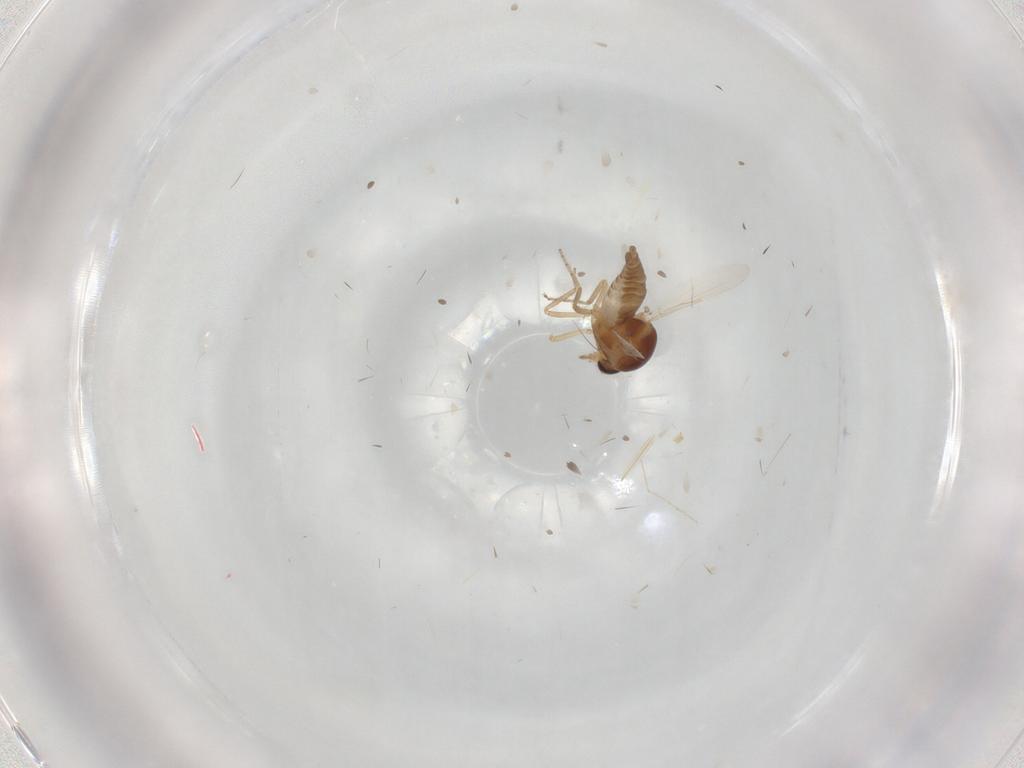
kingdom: Animalia
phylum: Arthropoda
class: Insecta
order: Diptera
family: Ceratopogonidae
